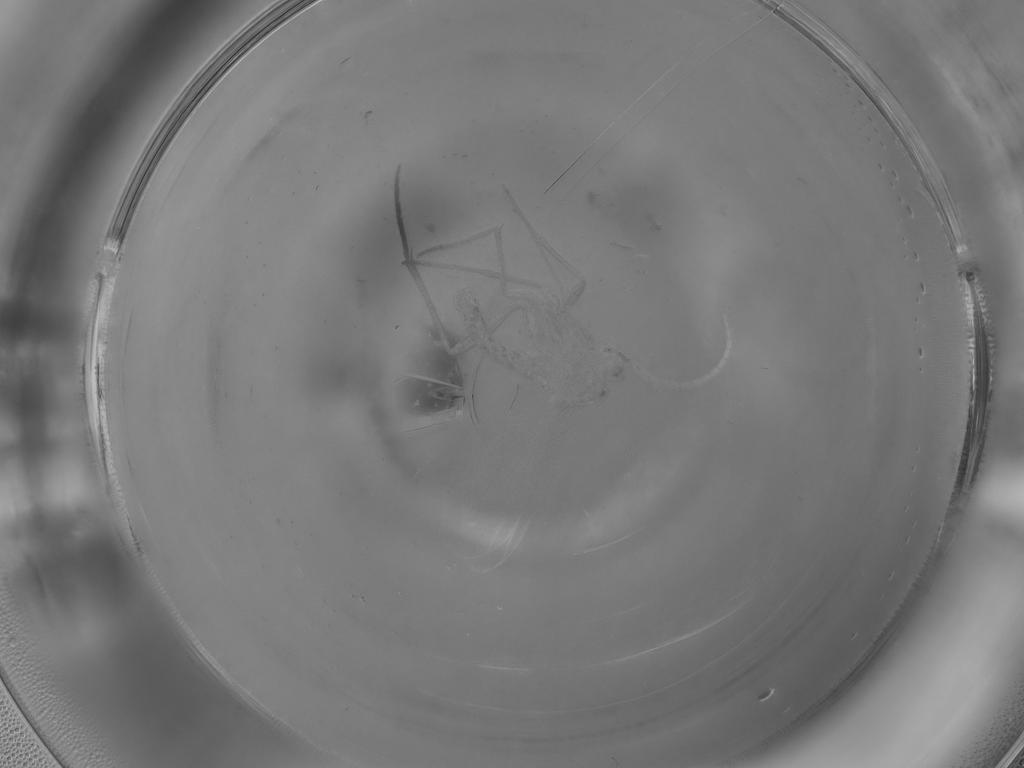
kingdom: Animalia
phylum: Arthropoda
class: Insecta
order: Diptera
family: Sciaridae
